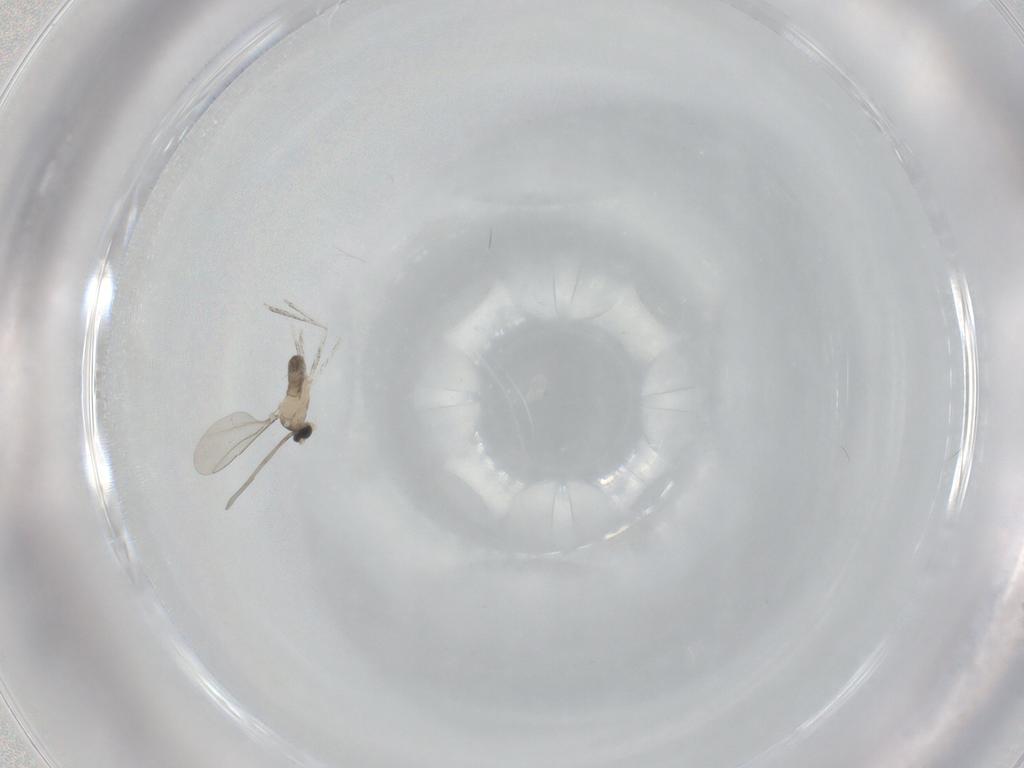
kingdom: Animalia
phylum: Arthropoda
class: Insecta
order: Diptera
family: Cecidomyiidae
